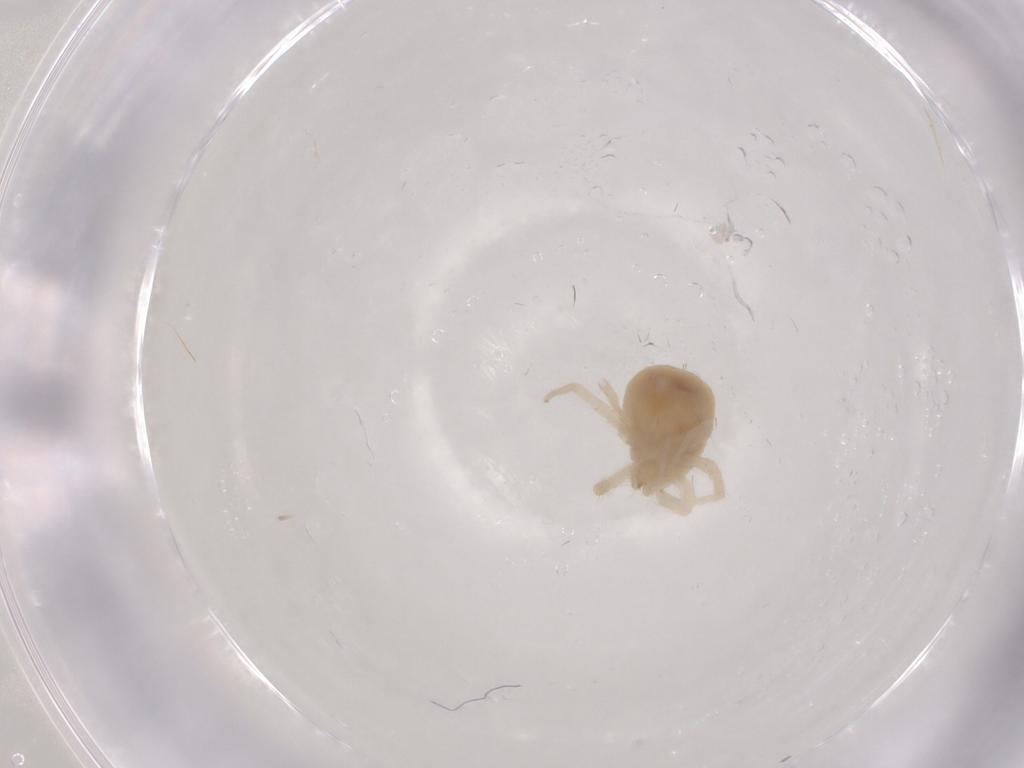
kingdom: Animalia
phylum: Arthropoda
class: Arachnida
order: Trombidiformes
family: Anystidae
